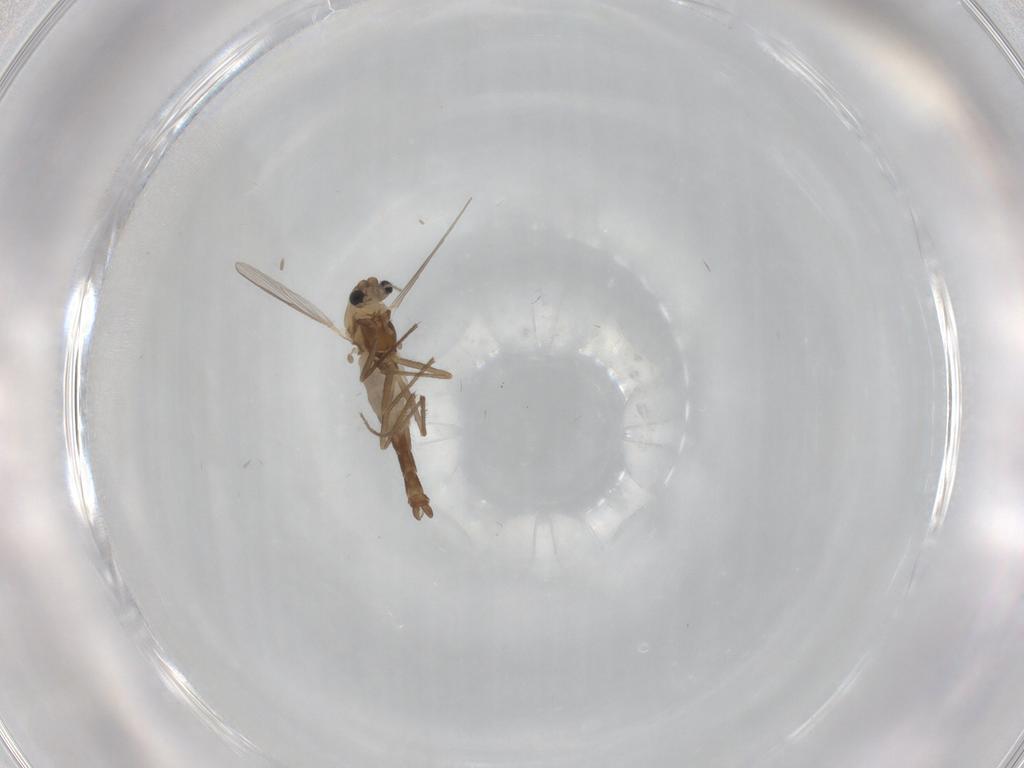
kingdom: Animalia
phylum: Arthropoda
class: Insecta
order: Diptera
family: Chironomidae
